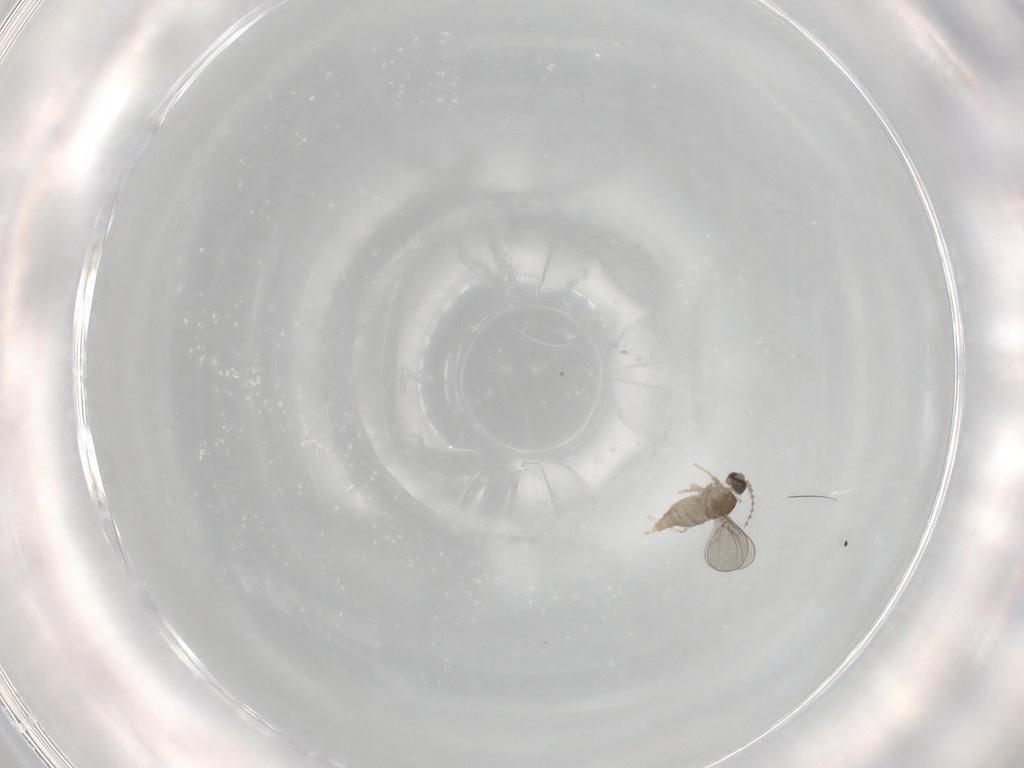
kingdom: Animalia
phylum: Arthropoda
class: Insecta
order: Diptera
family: Cecidomyiidae
